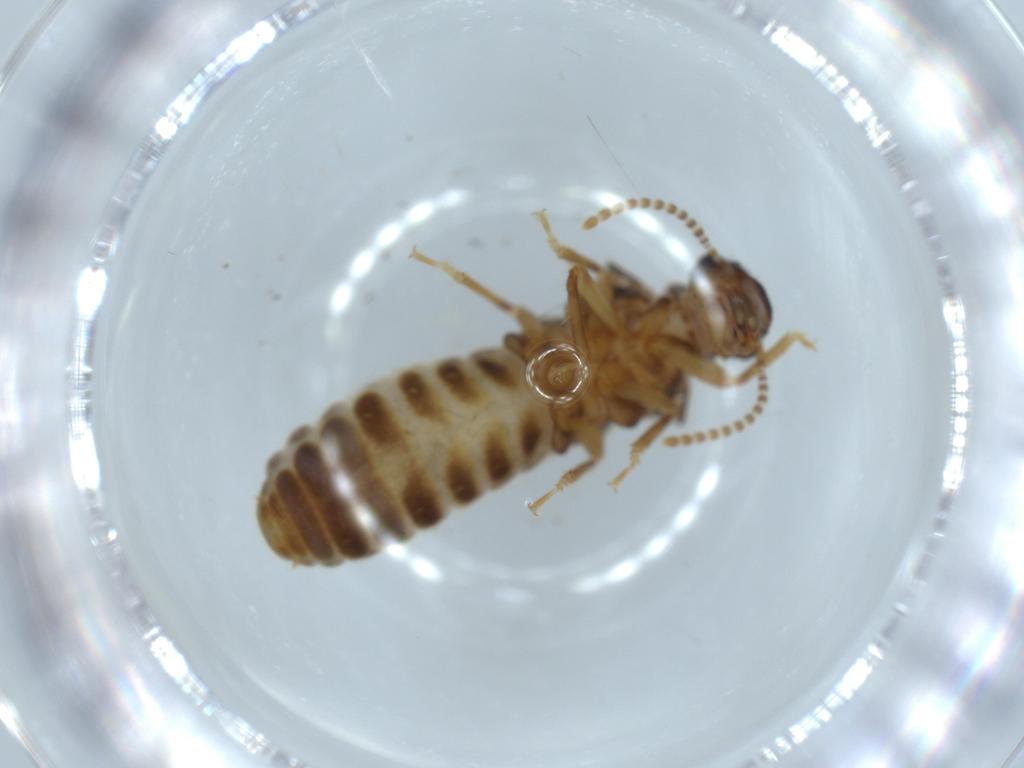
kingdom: Animalia
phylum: Arthropoda
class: Insecta
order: Blattodea
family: Termitidae
